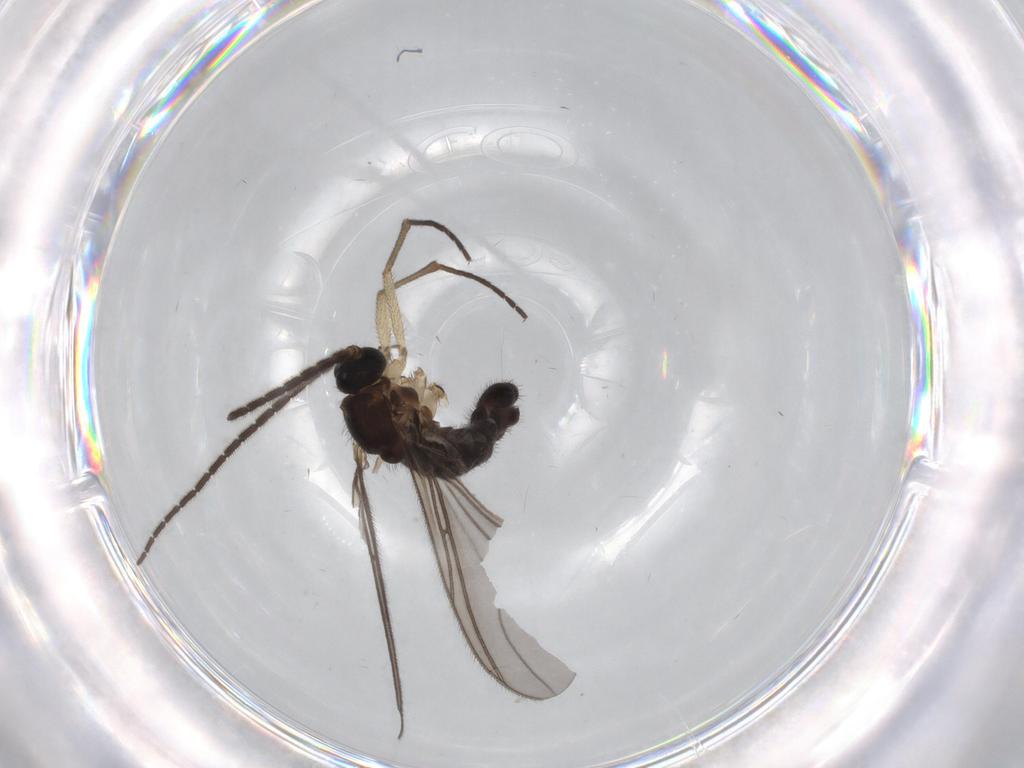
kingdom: Animalia
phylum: Arthropoda
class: Insecta
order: Diptera
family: Sciaridae
